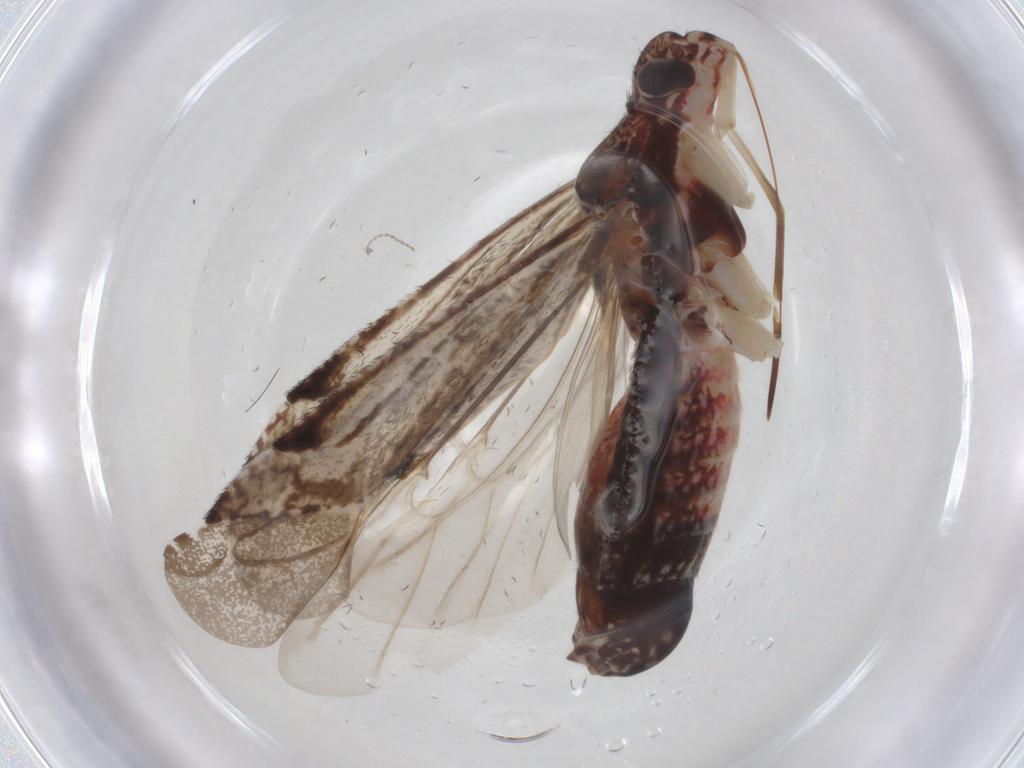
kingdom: Animalia
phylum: Arthropoda
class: Insecta
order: Hemiptera
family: Miridae
